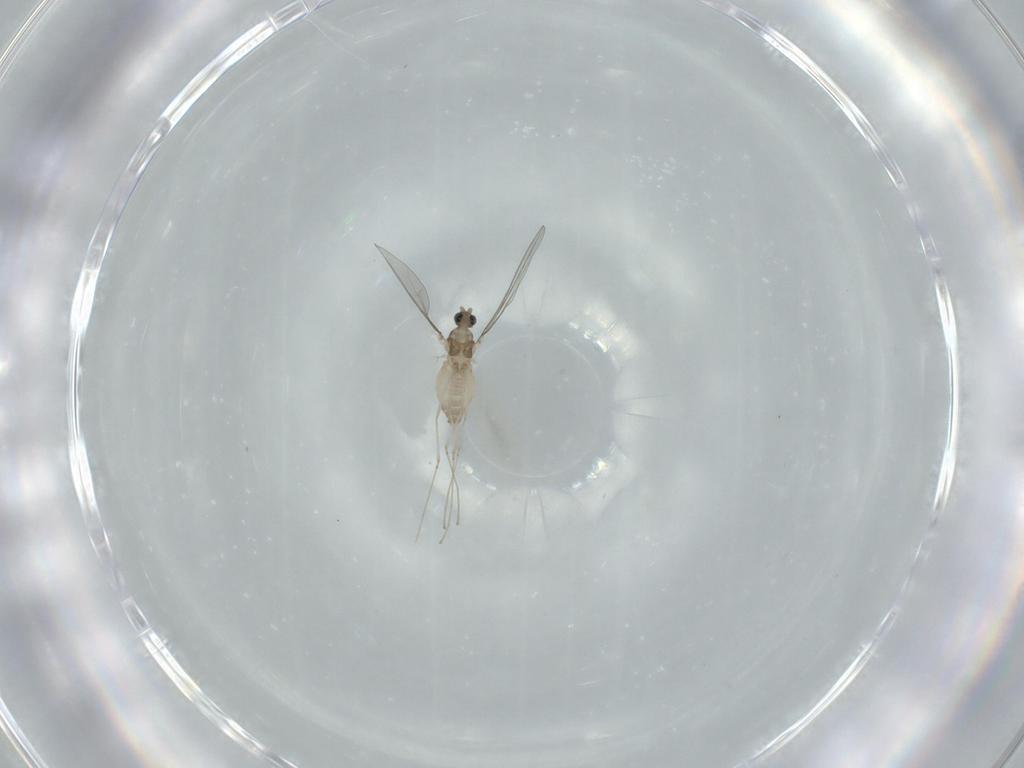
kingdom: Animalia
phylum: Arthropoda
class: Insecta
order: Diptera
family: Cecidomyiidae
